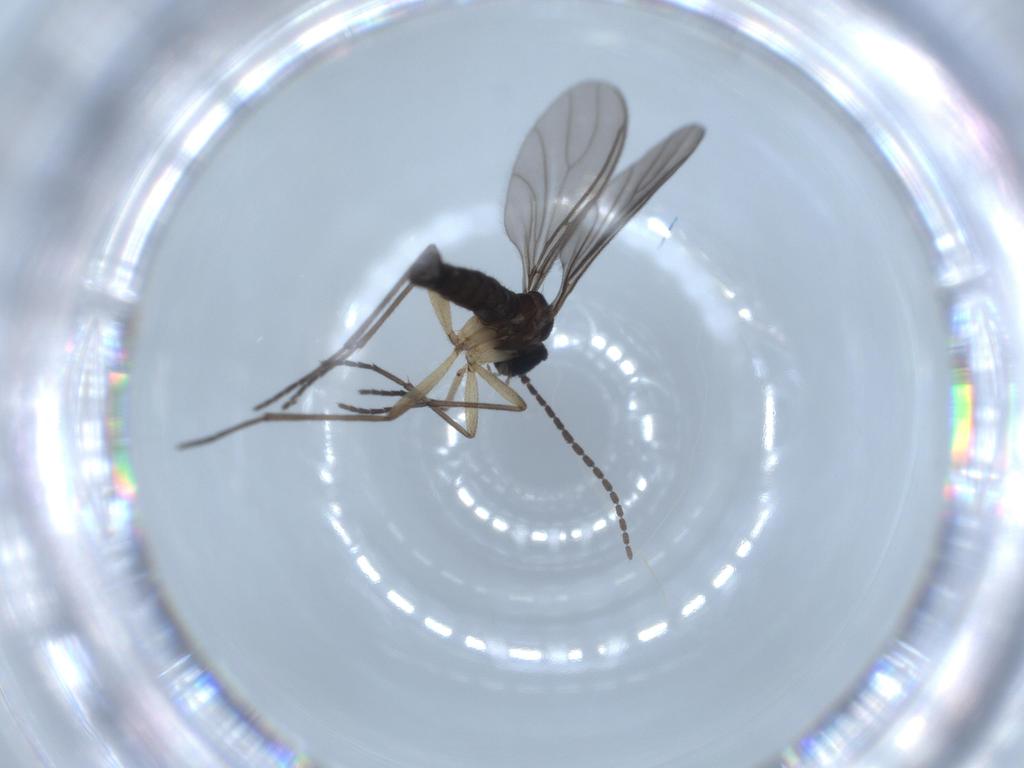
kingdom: Animalia
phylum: Arthropoda
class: Insecta
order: Diptera
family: Sciaridae
